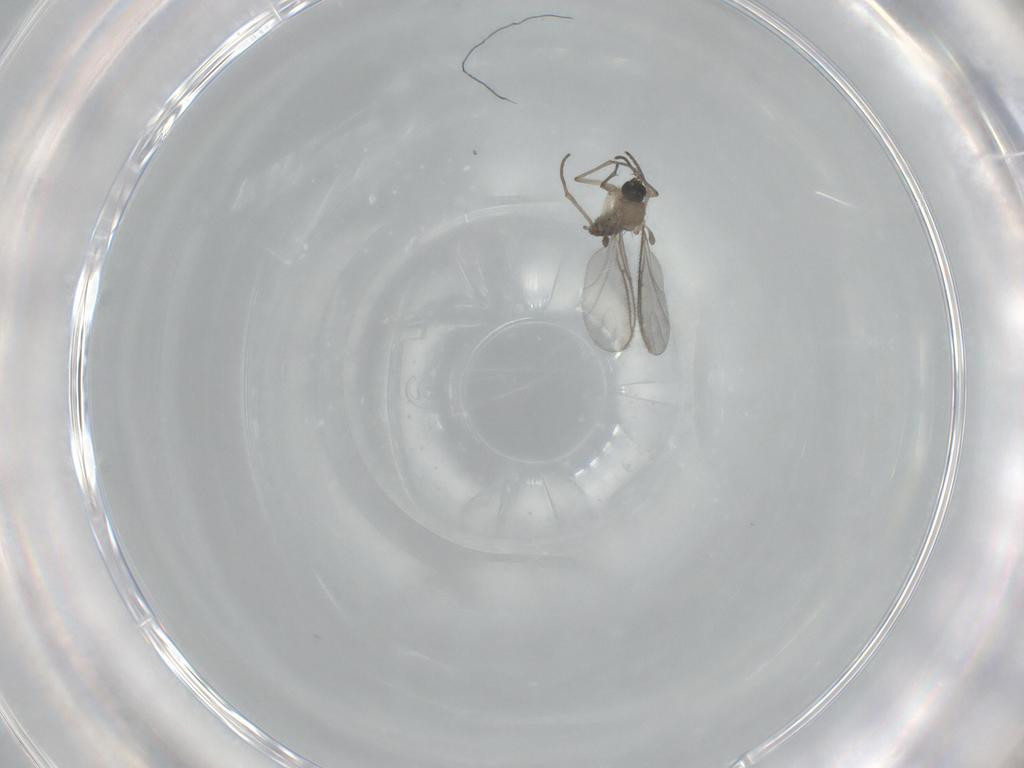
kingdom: Animalia
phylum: Arthropoda
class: Insecta
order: Diptera
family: Sciaridae
